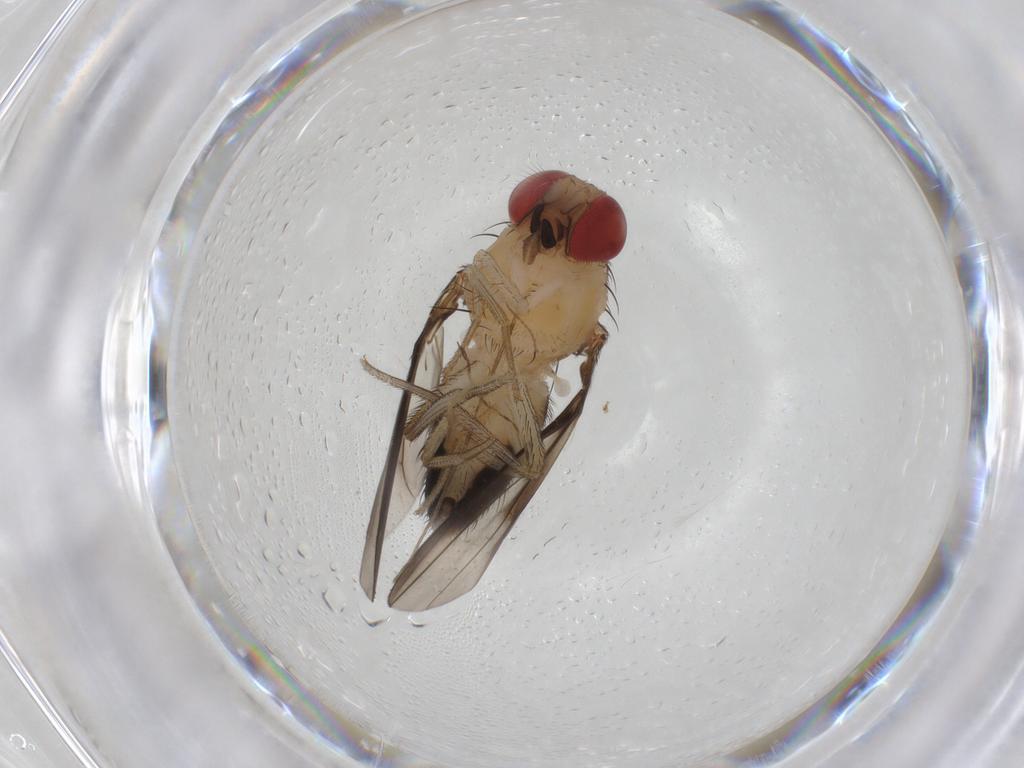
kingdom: Animalia
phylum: Arthropoda
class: Insecta
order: Diptera
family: Drosophilidae
